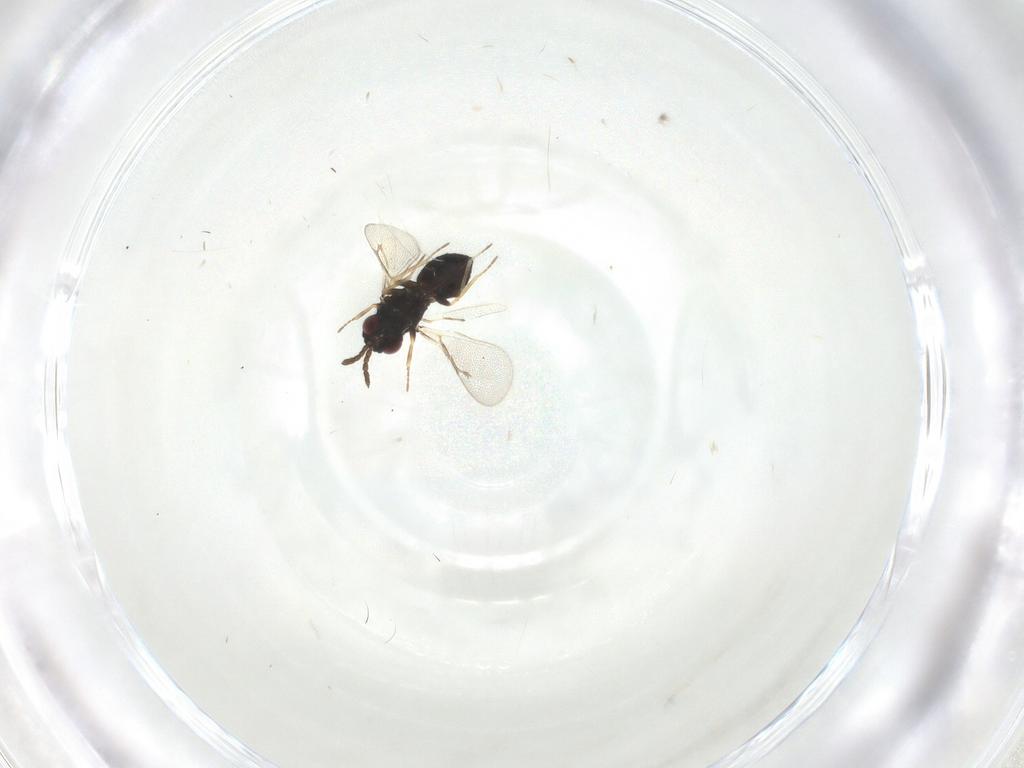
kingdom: Animalia
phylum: Arthropoda
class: Insecta
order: Hymenoptera
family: Eulophidae
